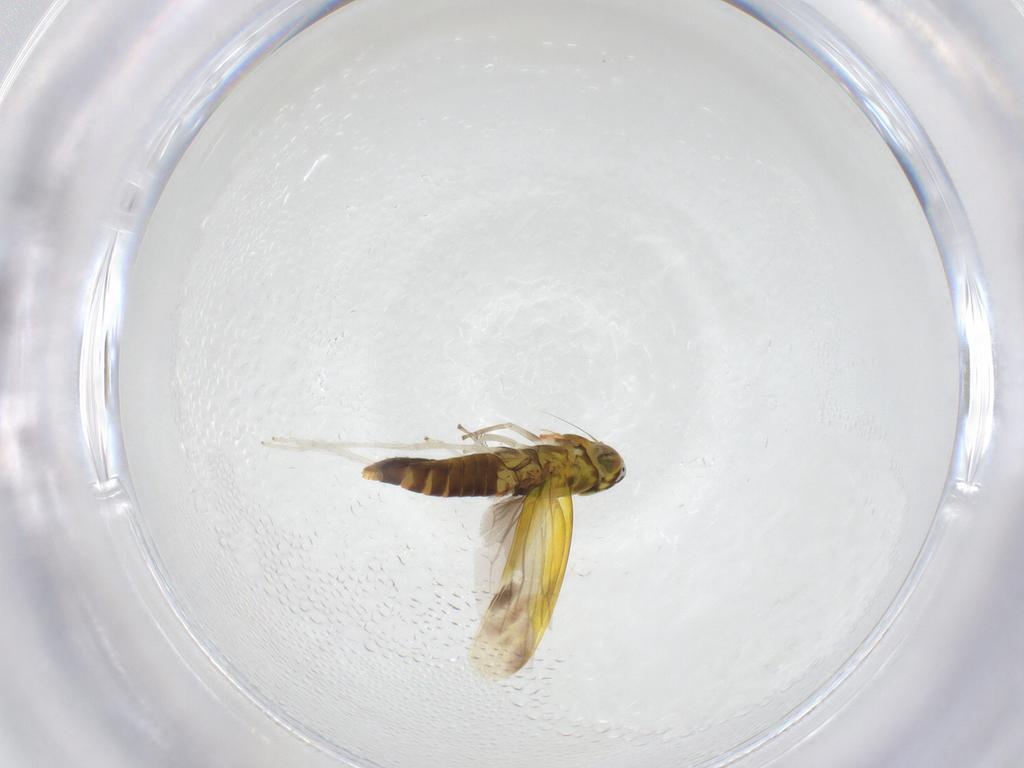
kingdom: Animalia
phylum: Arthropoda
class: Insecta
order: Hemiptera
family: Cicadellidae
